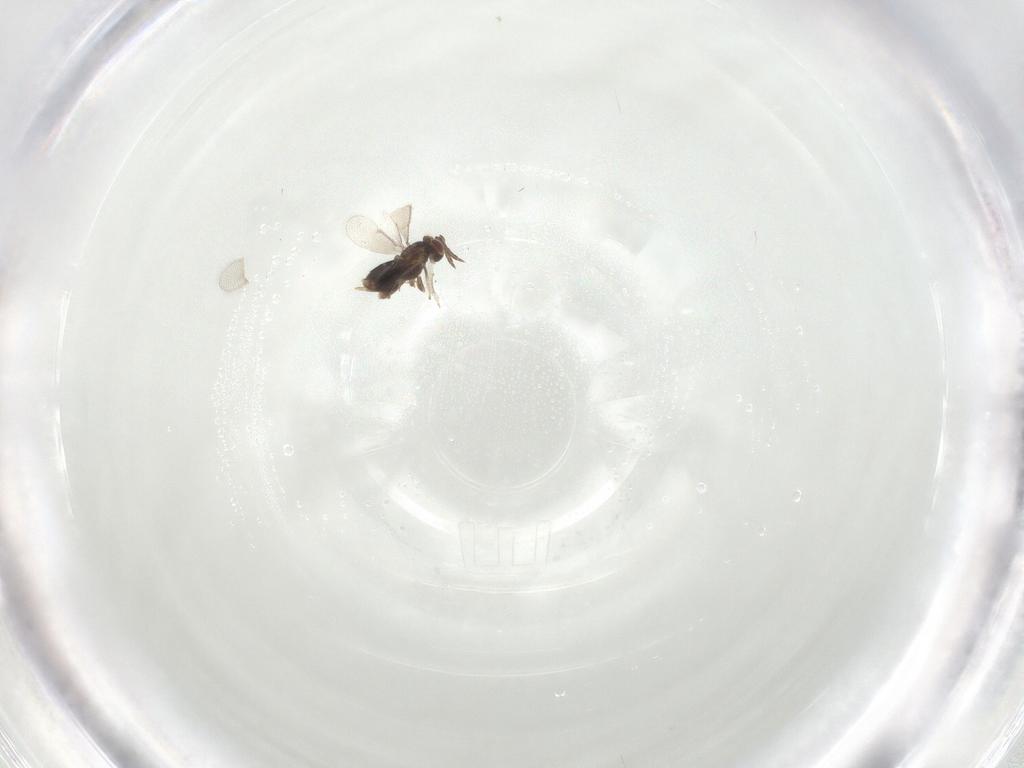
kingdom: Animalia
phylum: Arthropoda
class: Insecta
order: Hymenoptera
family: Aphelinidae
